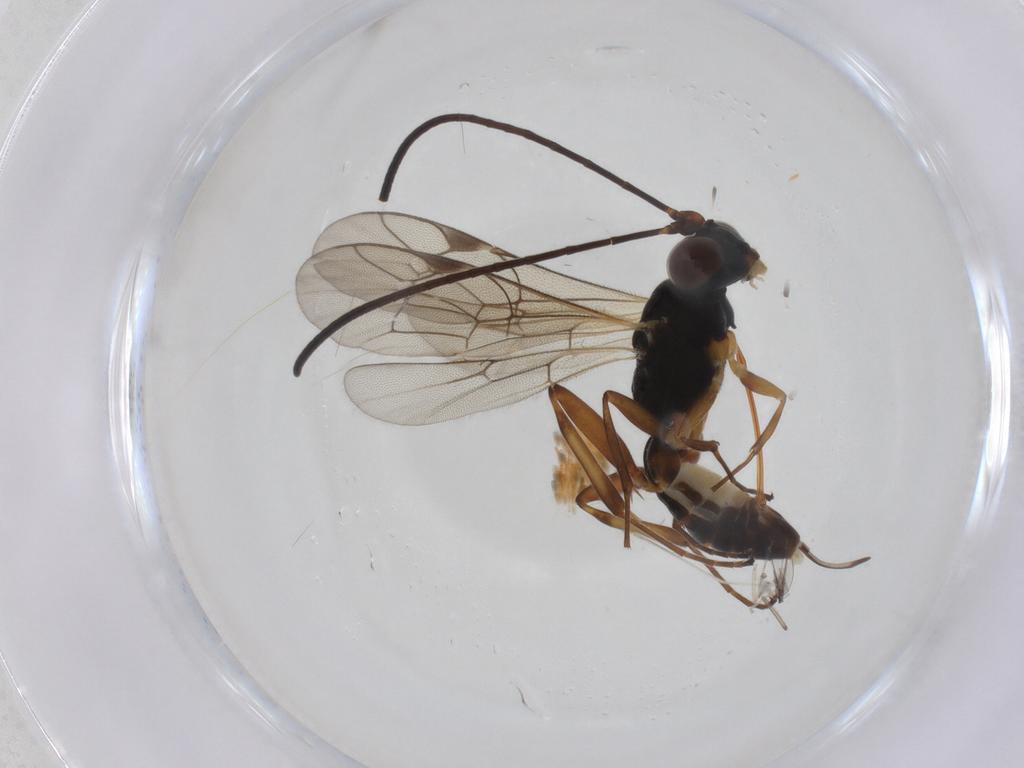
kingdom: Animalia
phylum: Arthropoda
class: Insecta
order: Hymenoptera
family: Ichneumonidae
